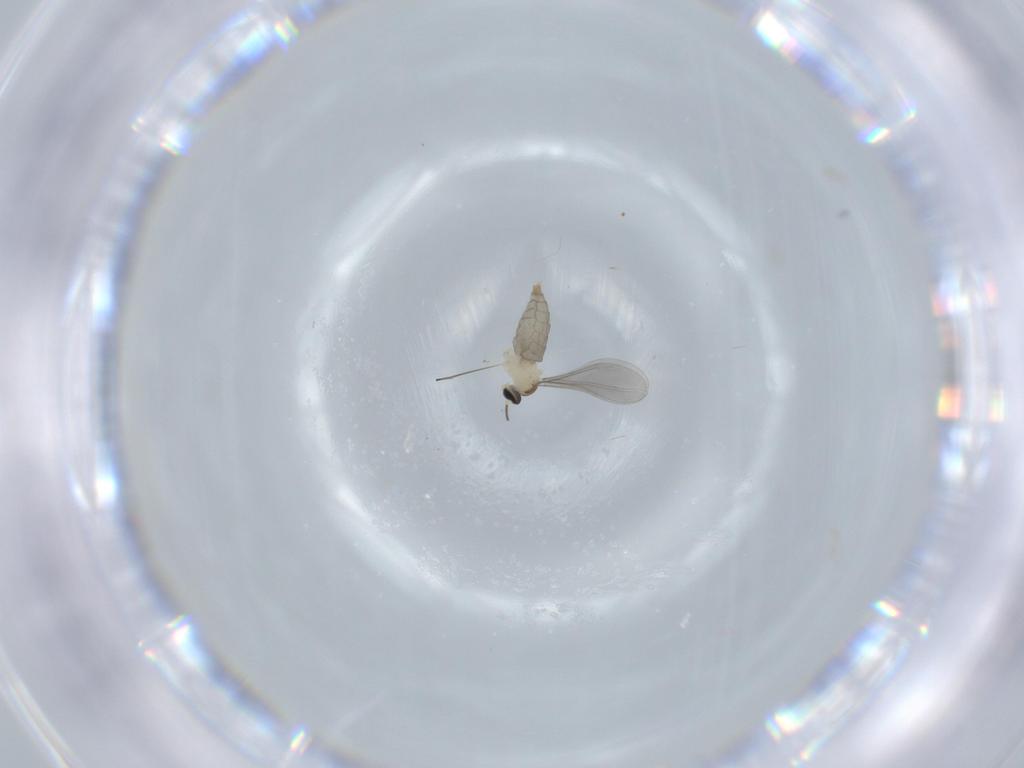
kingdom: Animalia
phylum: Arthropoda
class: Insecta
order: Diptera
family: Cecidomyiidae
